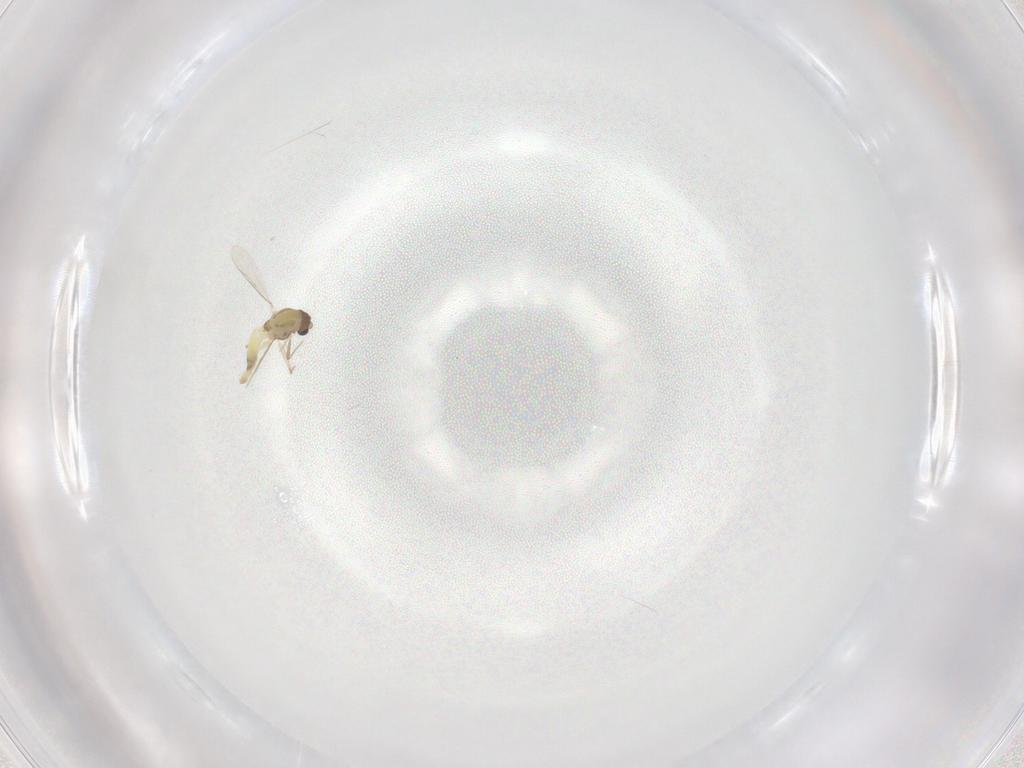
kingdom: Animalia
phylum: Arthropoda
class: Insecta
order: Diptera
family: Chironomidae
